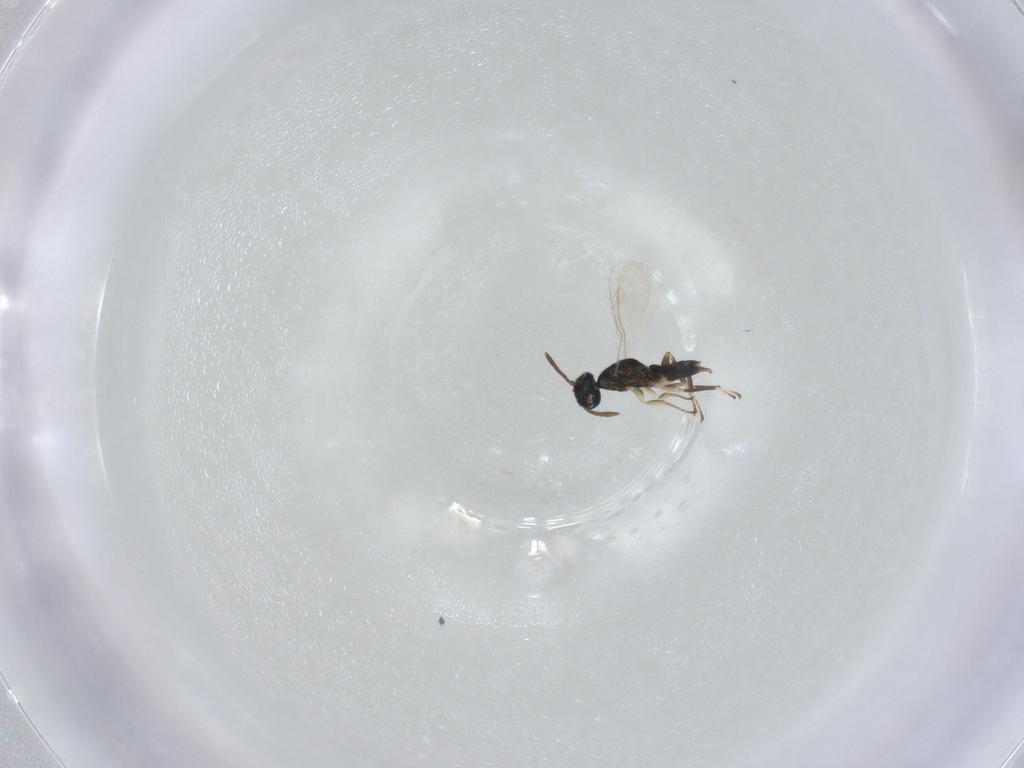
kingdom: Animalia
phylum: Arthropoda
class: Insecta
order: Hymenoptera
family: Eupelmidae
